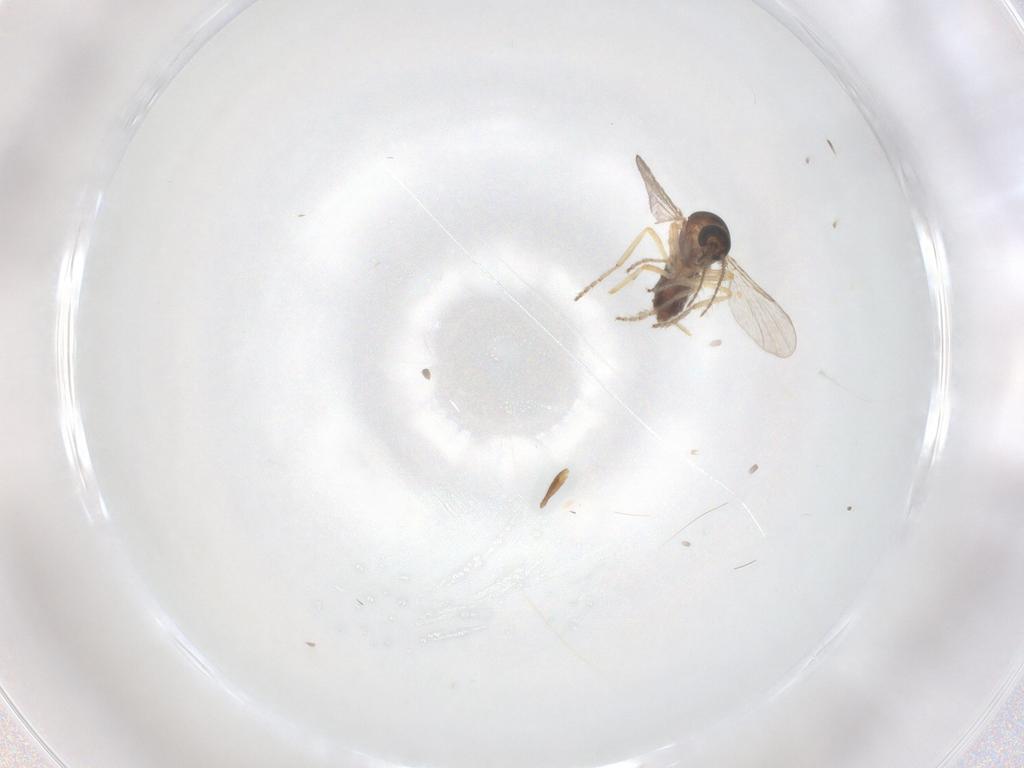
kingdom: Animalia
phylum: Arthropoda
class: Insecta
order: Diptera
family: Ceratopogonidae
